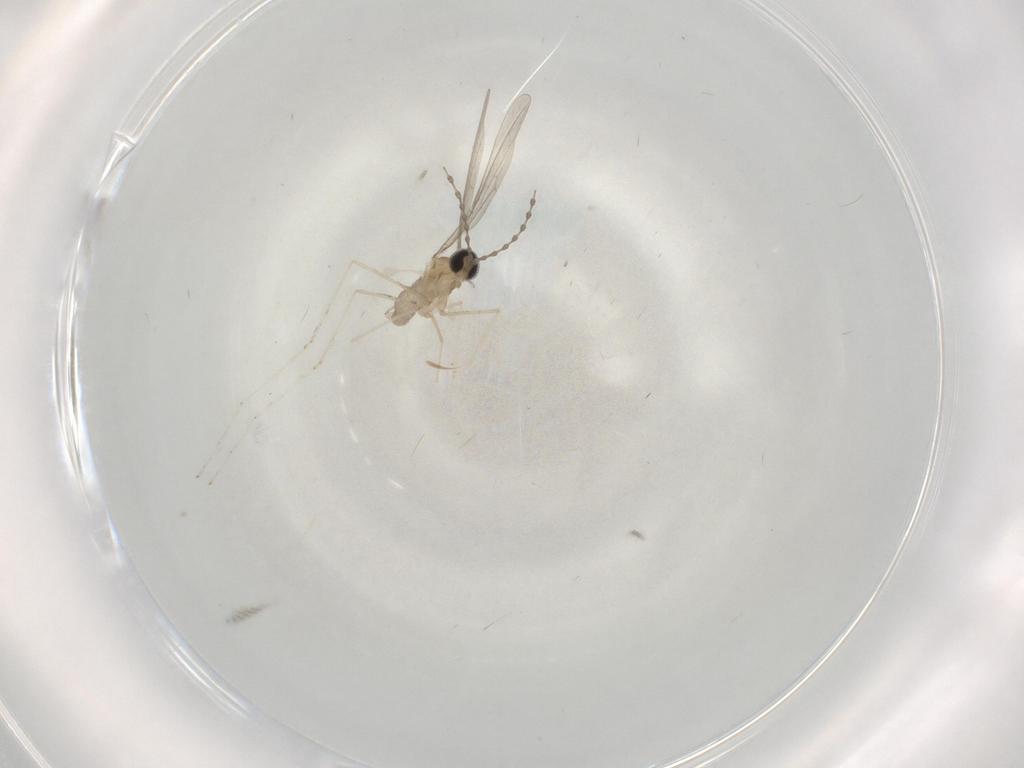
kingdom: Animalia
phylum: Arthropoda
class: Insecta
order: Diptera
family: Cecidomyiidae
